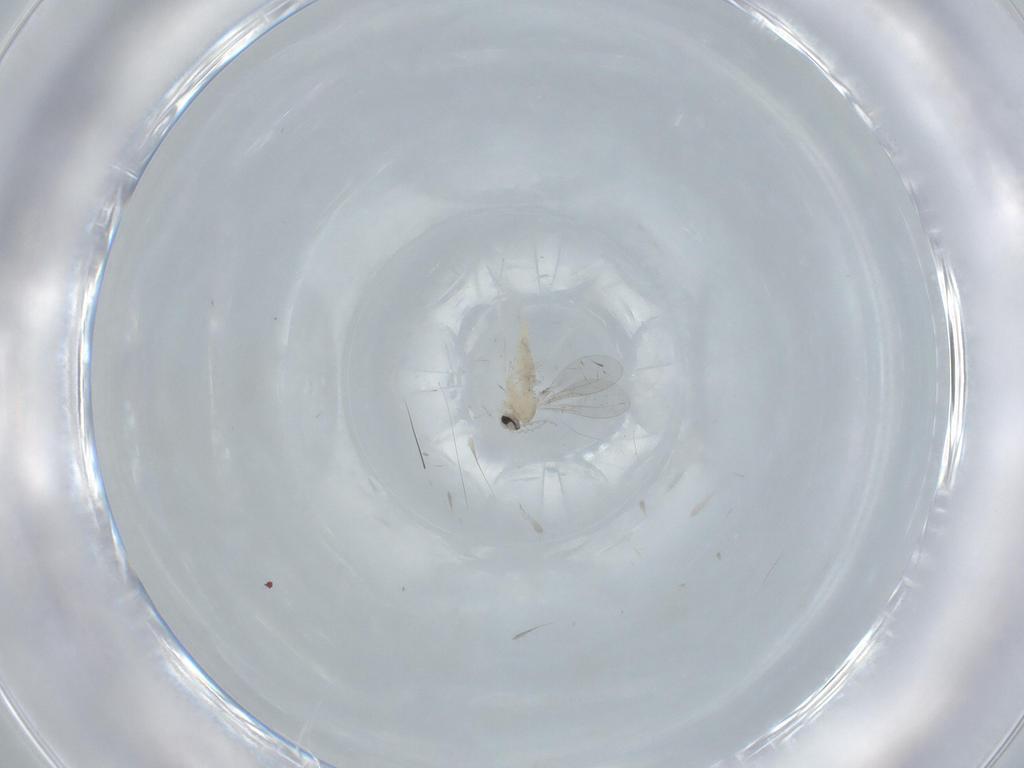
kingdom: Animalia
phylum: Arthropoda
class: Insecta
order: Diptera
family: Cecidomyiidae
